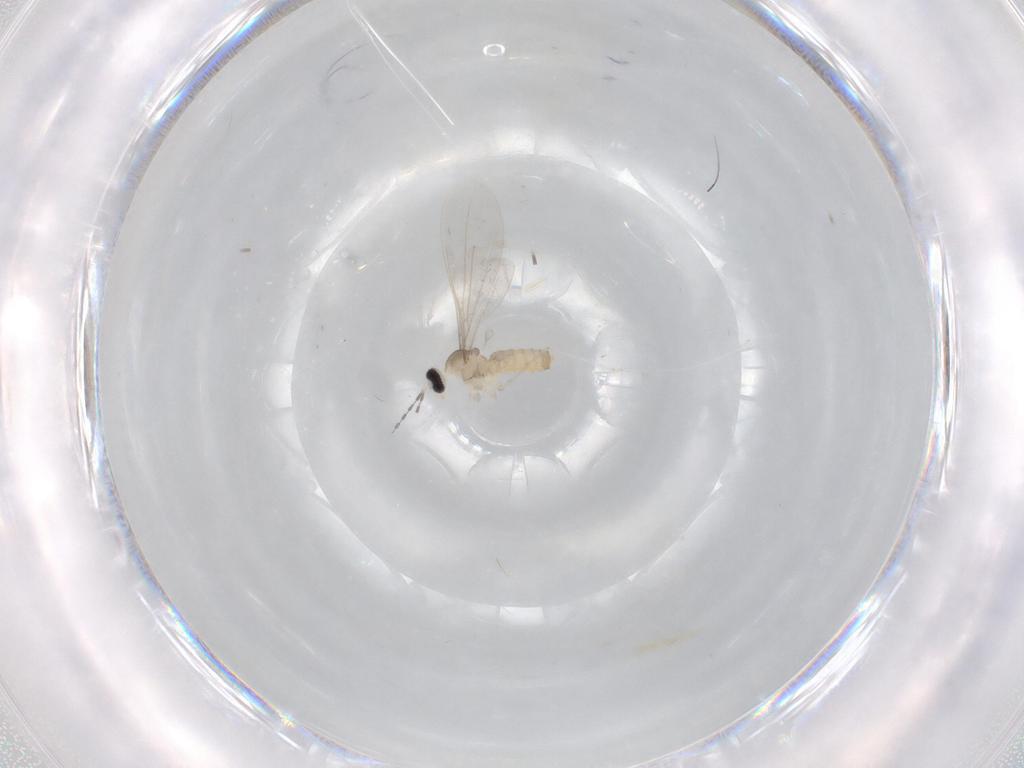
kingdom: Animalia
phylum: Arthropoda
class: Insecta
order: Diptera
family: Cecidomyiidae
